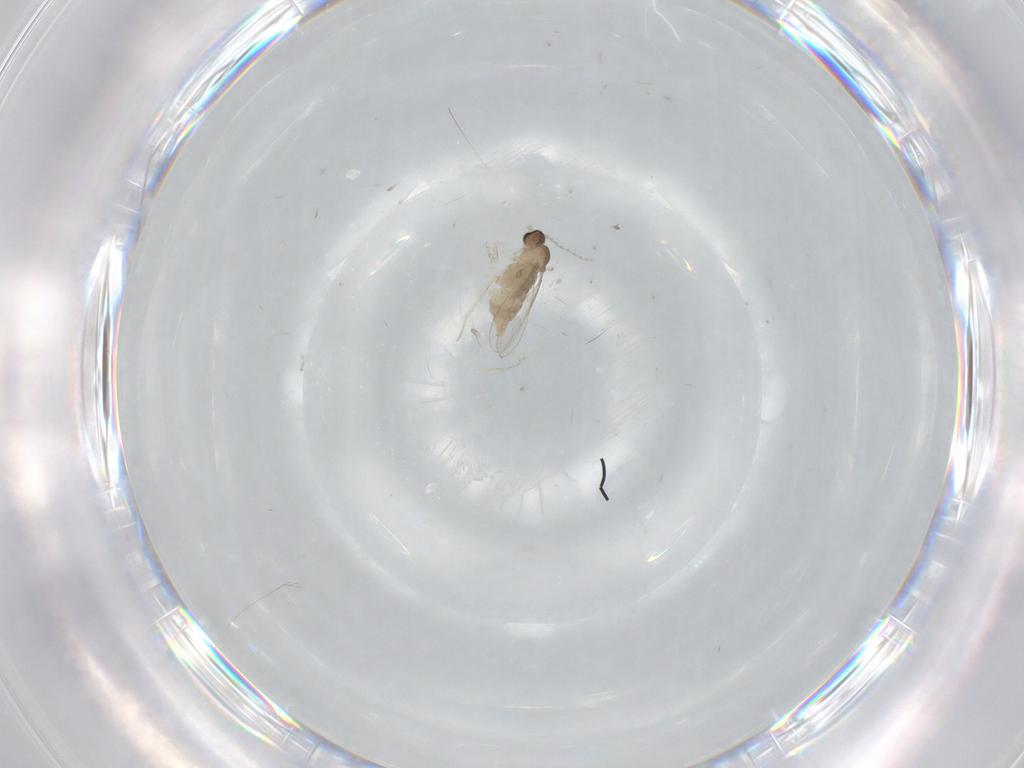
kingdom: Animalia
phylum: Arthropoda
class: Insecta
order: Diptera
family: Cecidomyiidae
